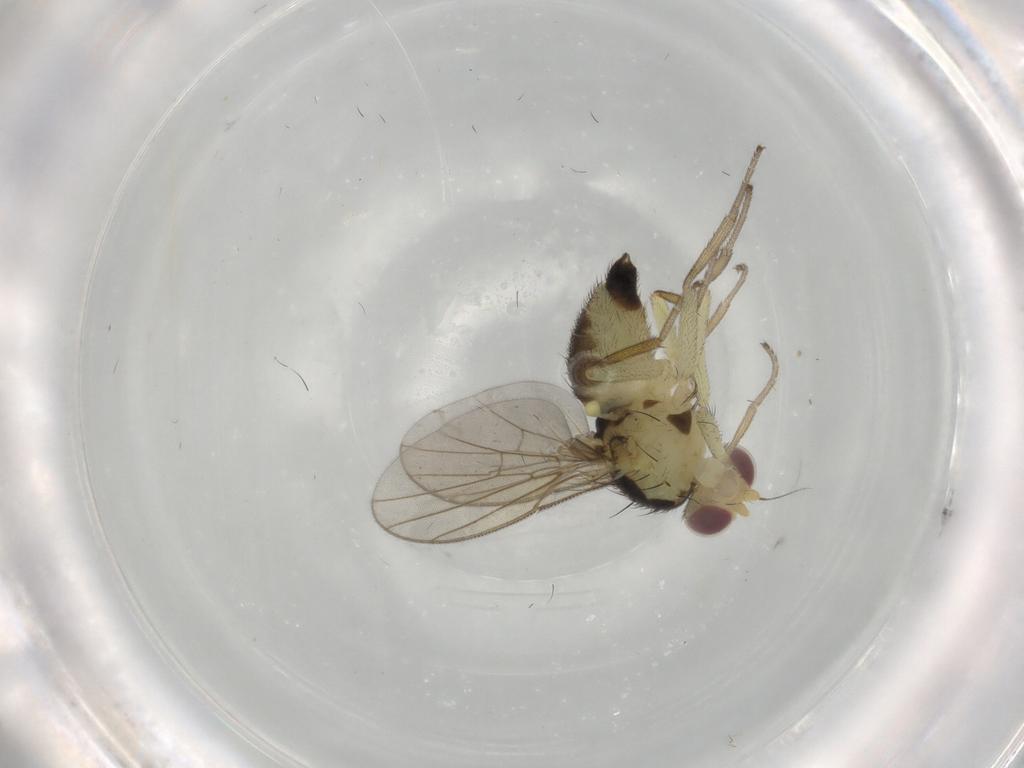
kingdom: Animalia
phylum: Arthropoda
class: Insecta
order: Diptera
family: Agromyzidae
